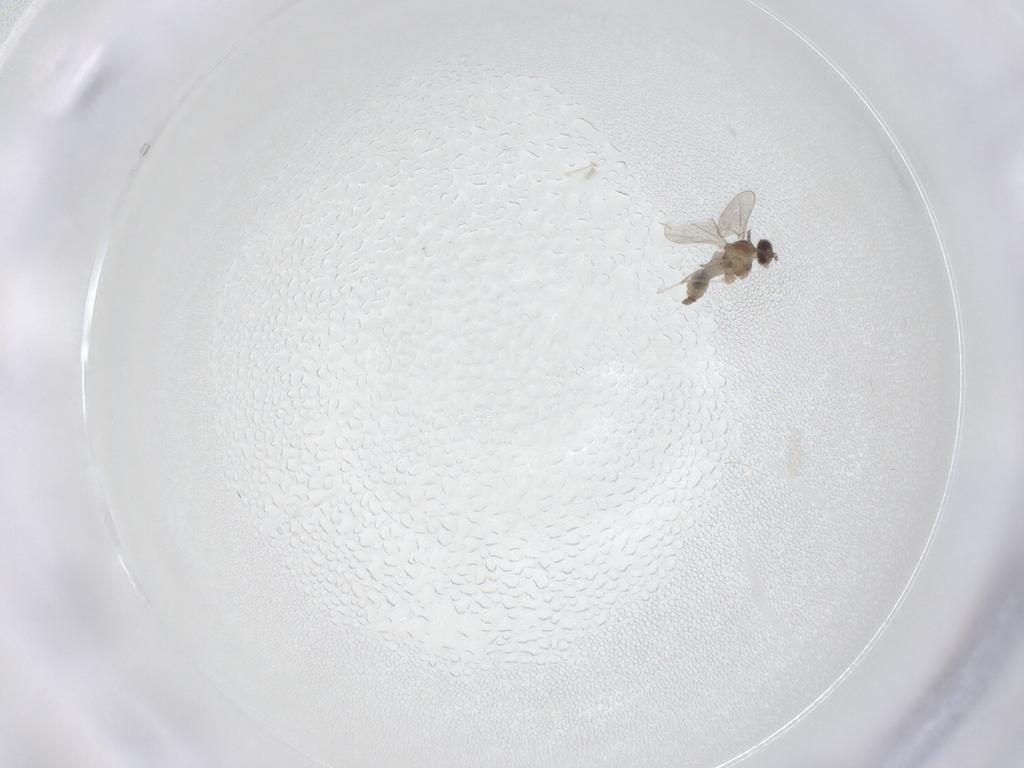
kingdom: Animalia
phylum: Arthropoda
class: Insecta
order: Diptera
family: Cecidomyiidae
